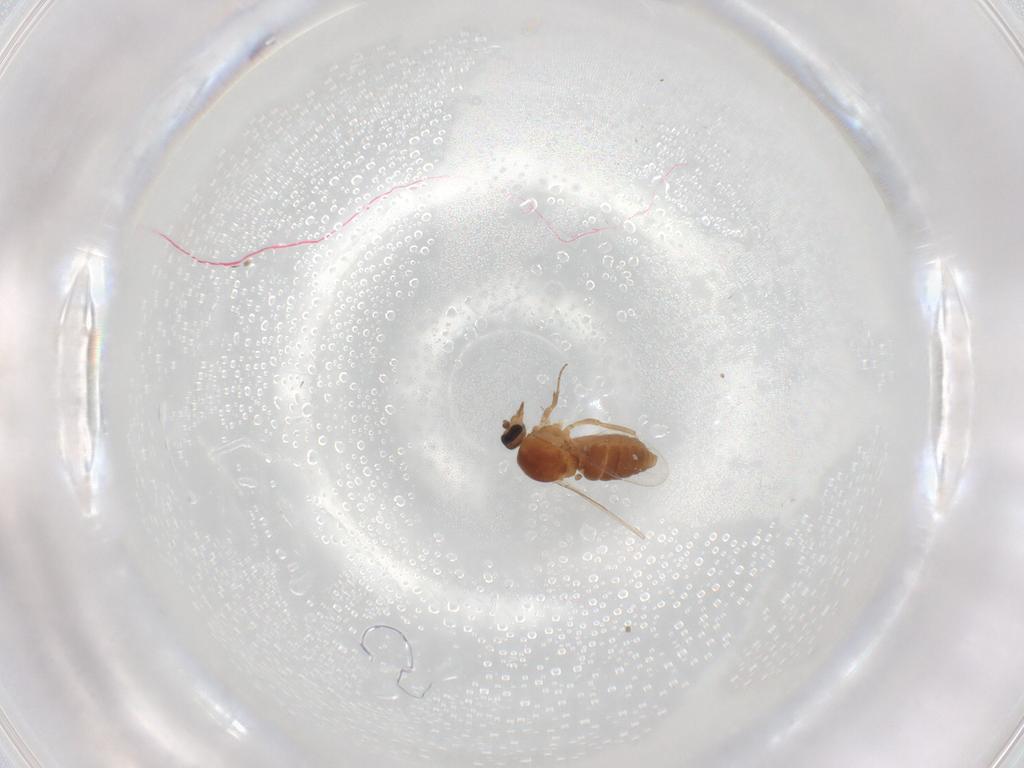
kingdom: Animalia
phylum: Arthropoda
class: Insecta
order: Diptera
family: Ceratopogonidae
